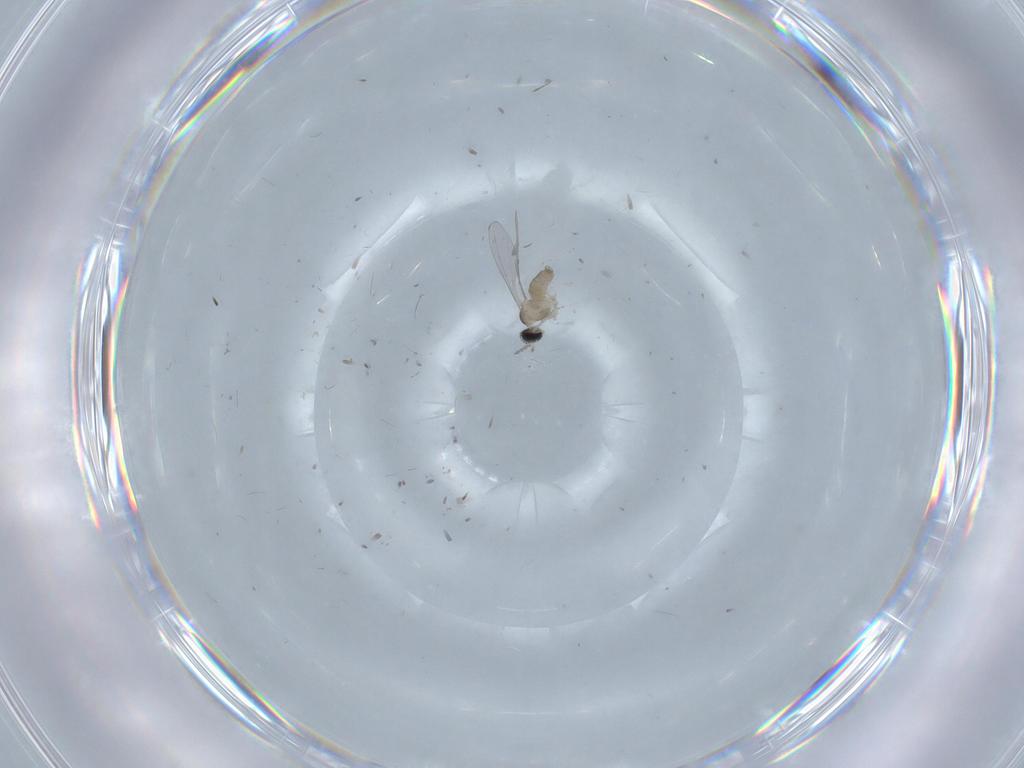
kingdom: Animalia
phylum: Arthropoda
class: Insecta
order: Diptera
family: Cecidomyiidae
